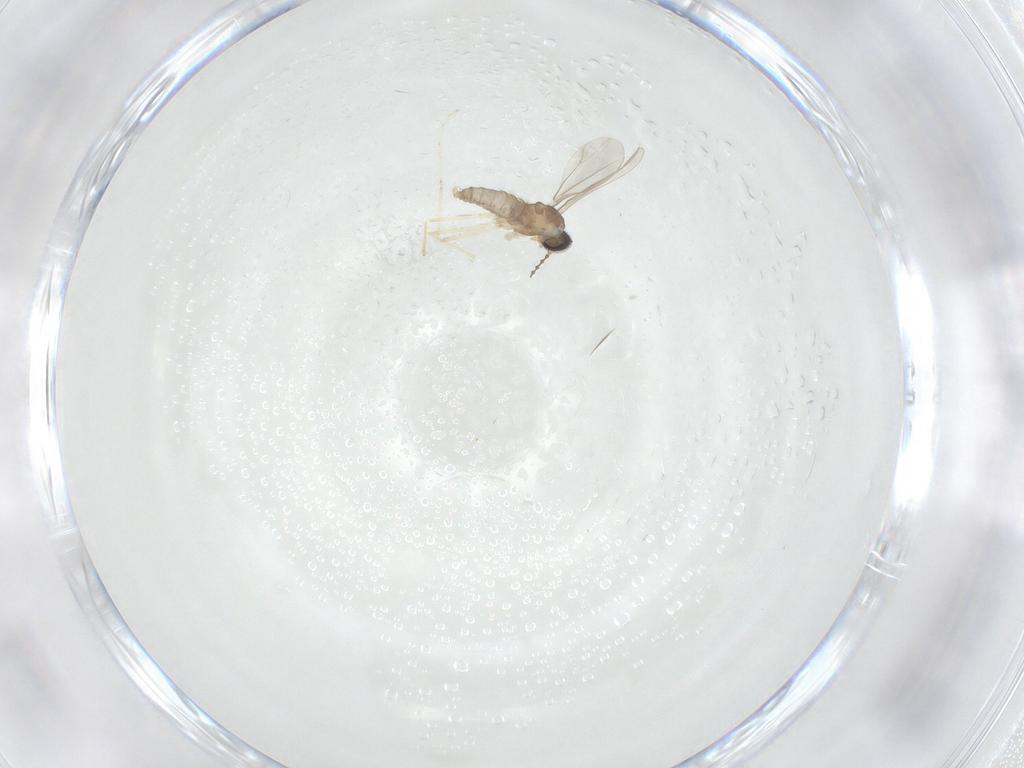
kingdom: Animalia
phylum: Arthropoda
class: Insecta
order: Diptera
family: Cecidomyiidae
